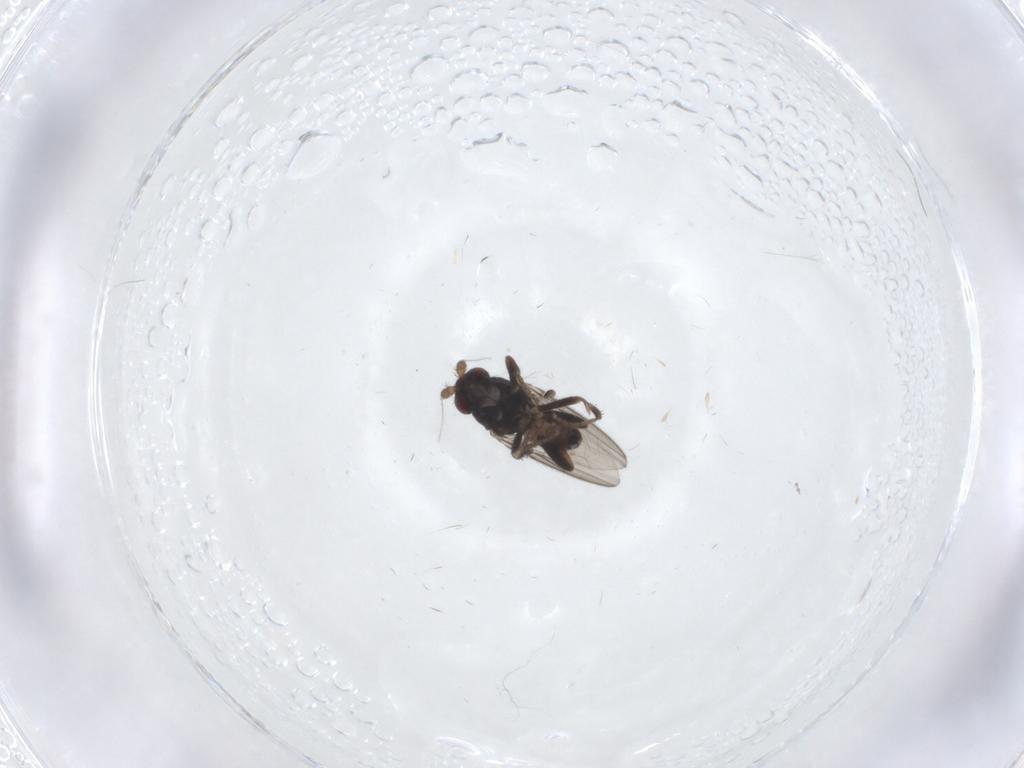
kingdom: Animalia
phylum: Arthropoda
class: Insecta
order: Diptera
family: Sphaeroceridae
